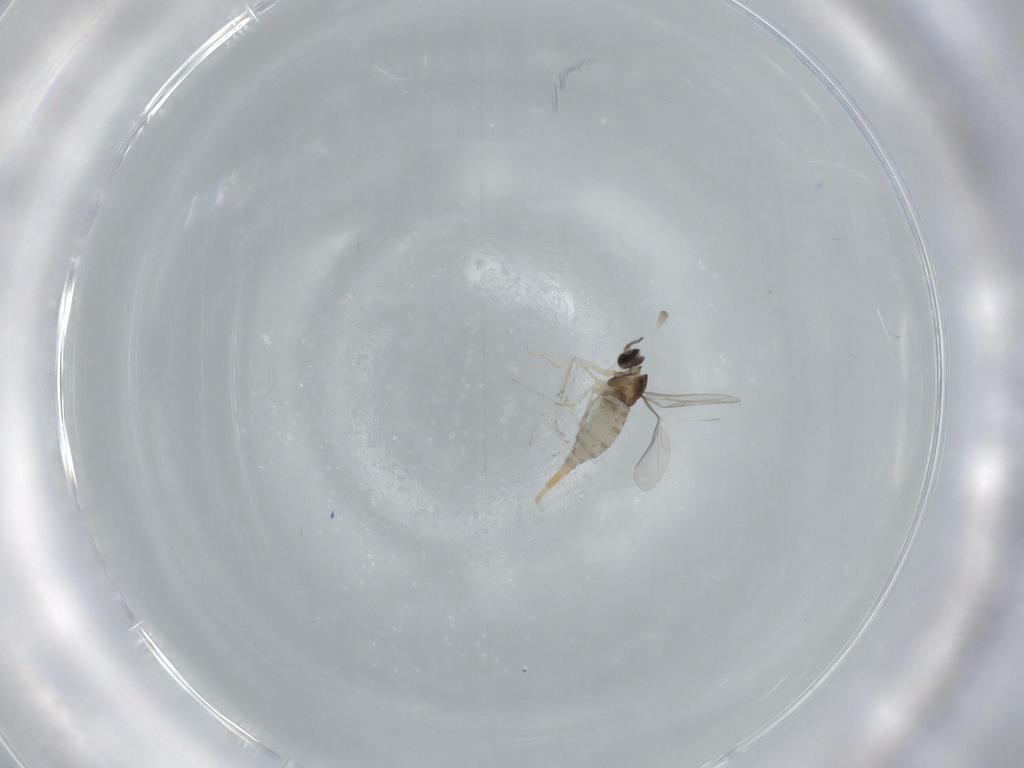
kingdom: Animalia
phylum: Arthropoda
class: Insecta
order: Diptera
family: Cecidomyiidae
